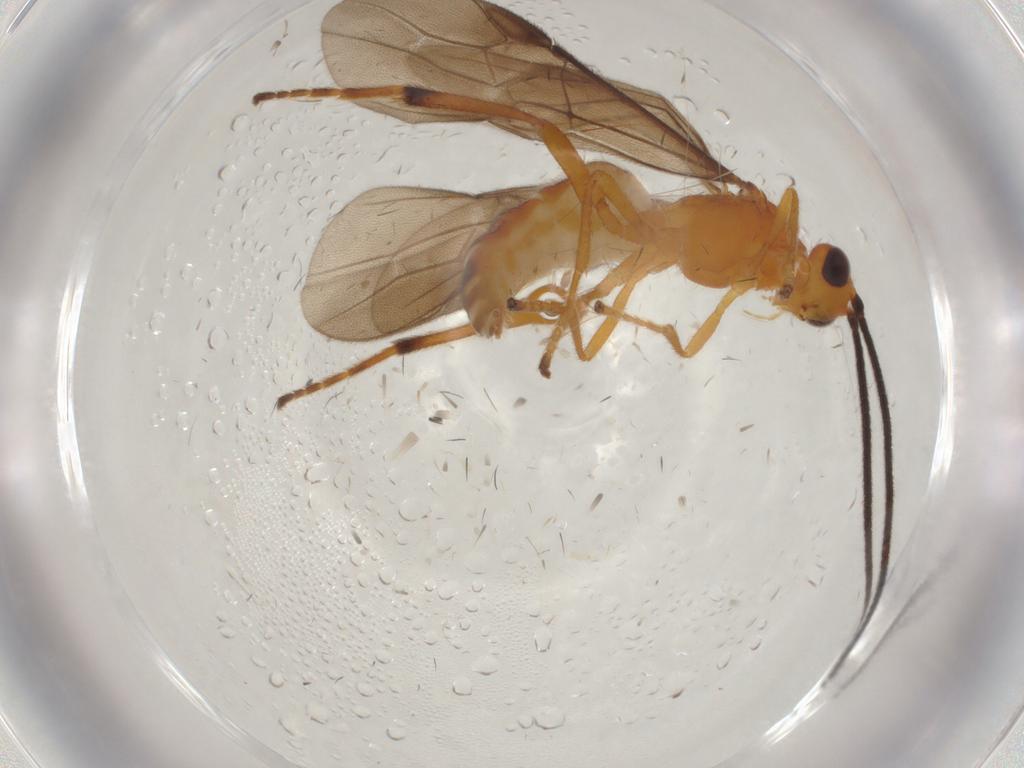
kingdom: Animalia
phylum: Arthropoda
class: Insecta
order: Hymenoptera
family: Braconidae
